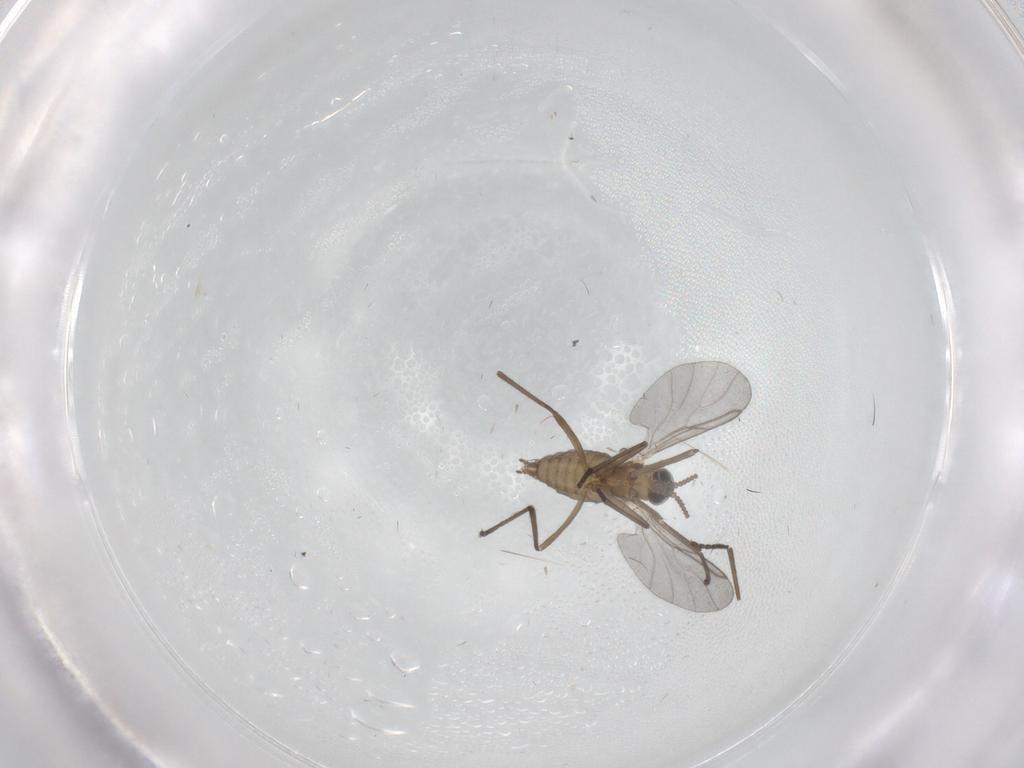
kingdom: Animalia
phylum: Arthropoda
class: Insecta
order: Diptera
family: Cecidomyiidae
